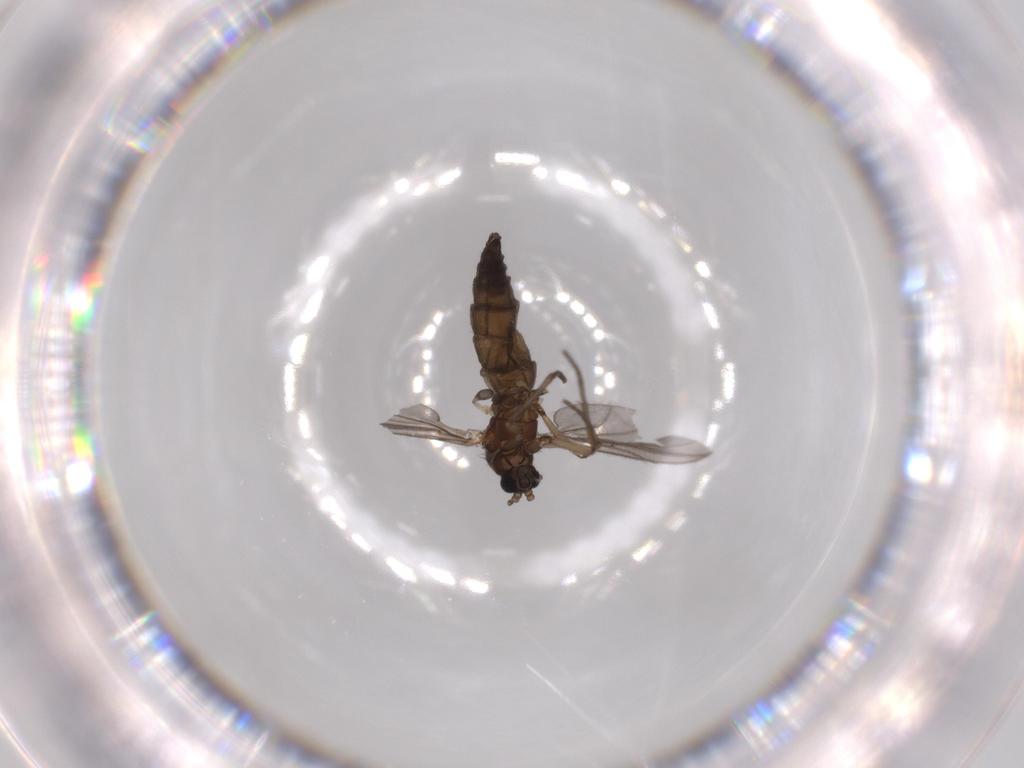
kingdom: Animalia
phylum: Arthropoda
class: Insecta
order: Diptera
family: Sciaridae
